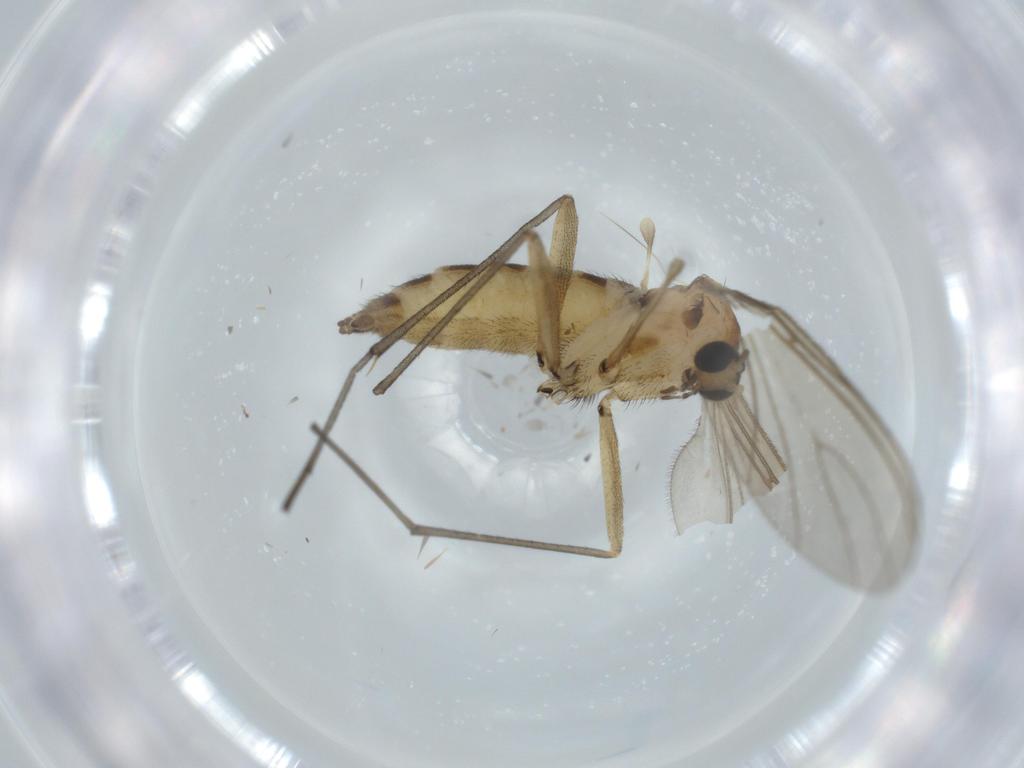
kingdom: Animalia
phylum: Arthropoda
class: Insecta
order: Diptera
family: Sciaridae
